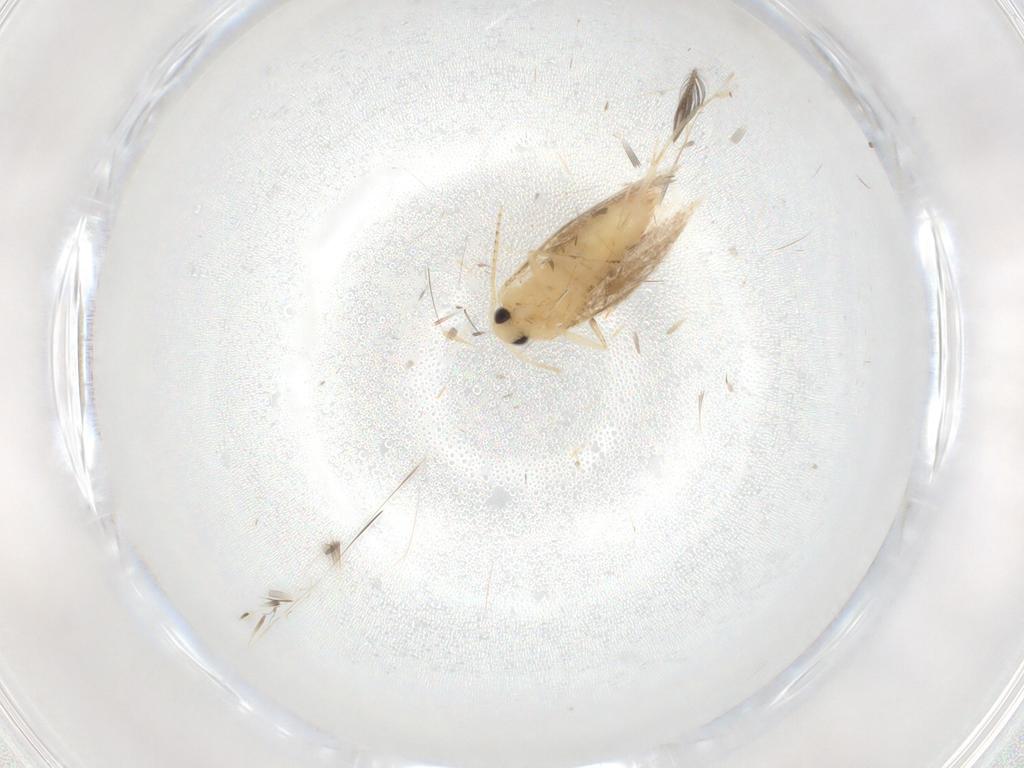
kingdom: Animalia
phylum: Arthropoda
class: Insecta
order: Lepidoptera
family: Bucculatricidae
